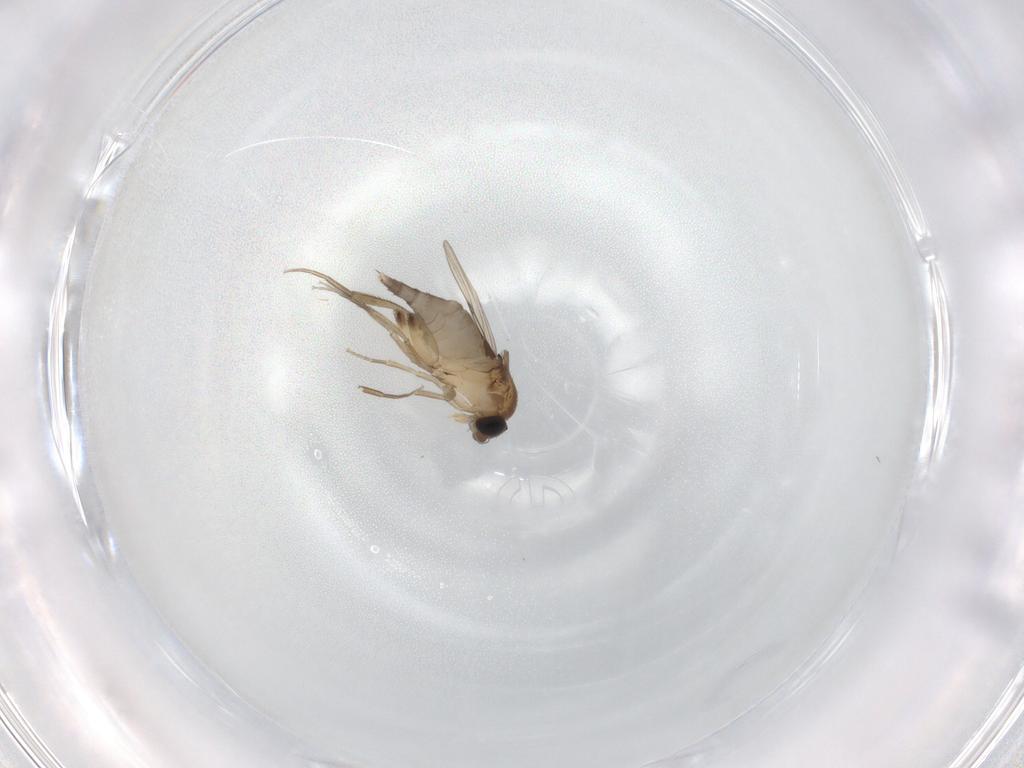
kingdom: Animalia
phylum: Arthropoda
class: Insecta
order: Diptera
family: Phoridae
